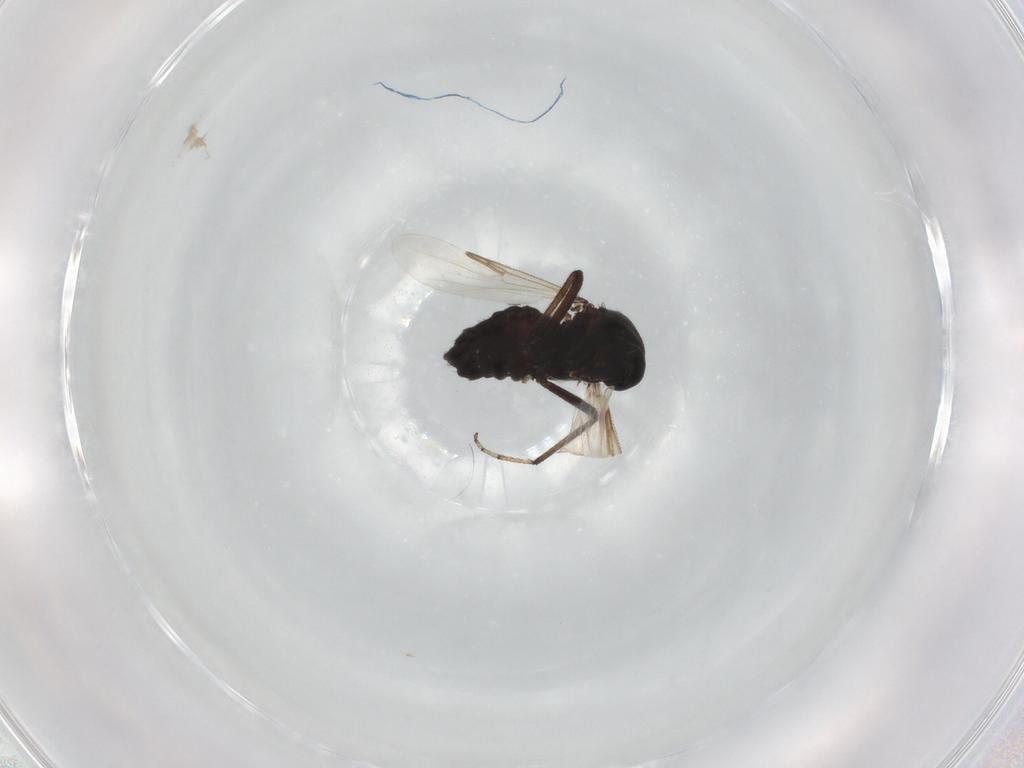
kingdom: Animalia
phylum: Arthropoda
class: Insecta
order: Diptera
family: Ceratopogonidae
